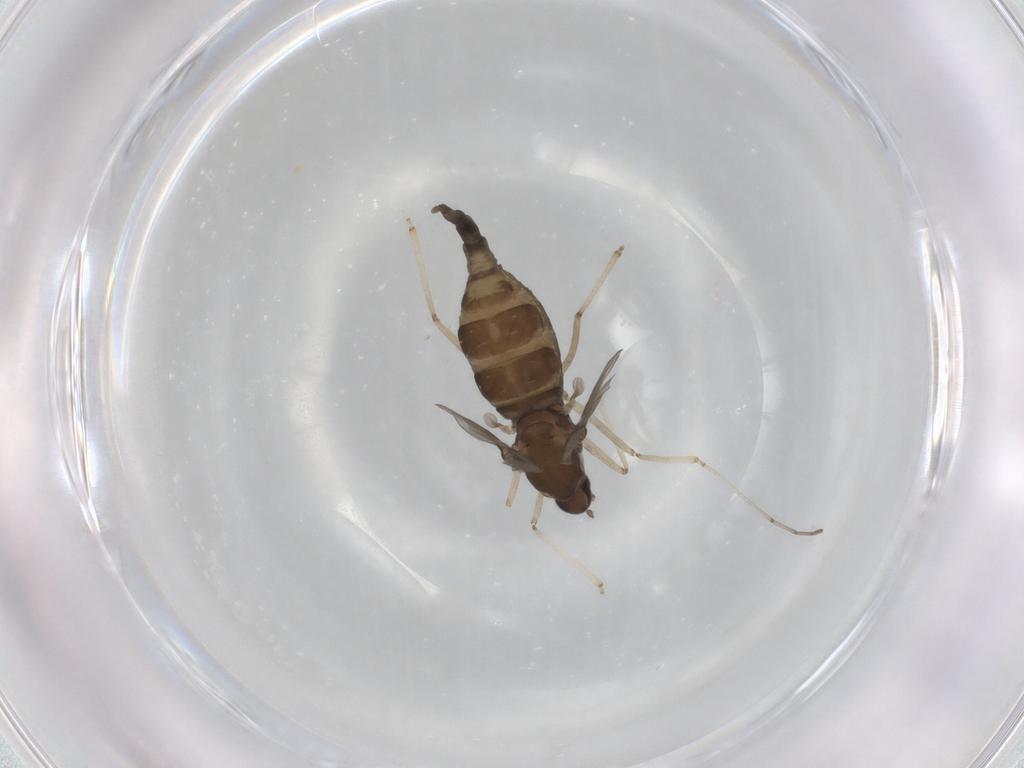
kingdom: Animalia
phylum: Arthropoda
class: Insecta
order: Diptera
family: Cecidomyiidae
